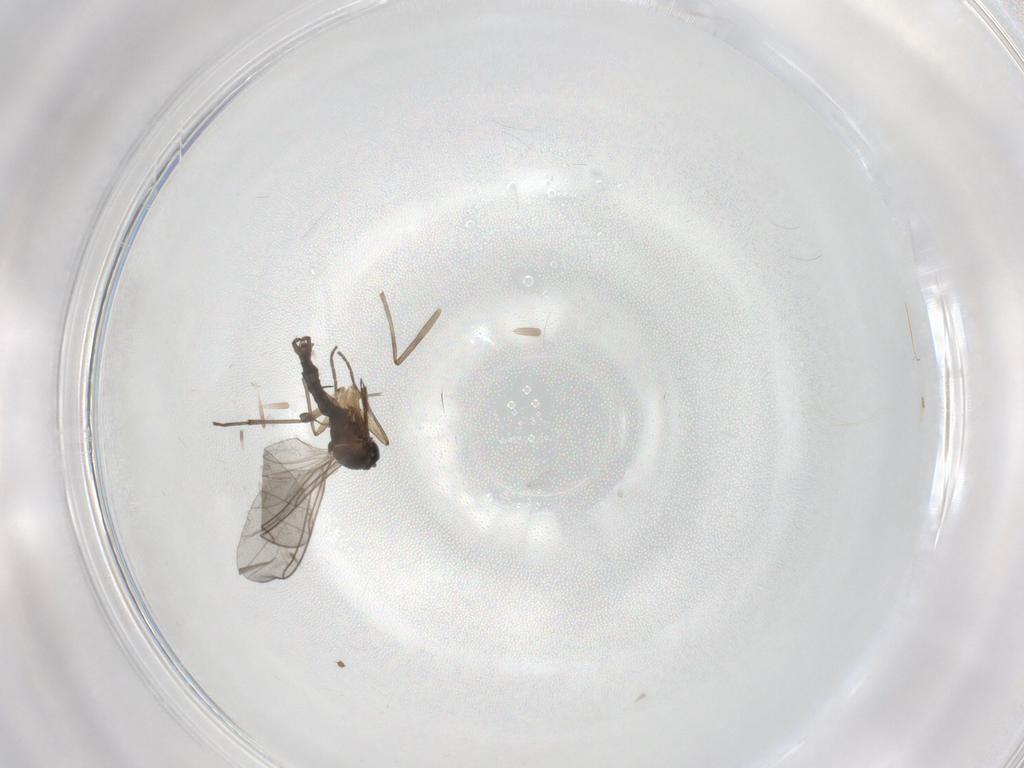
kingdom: Animalia
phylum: Arthropoda
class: Insecta
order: Diptera
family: Sciaridae
